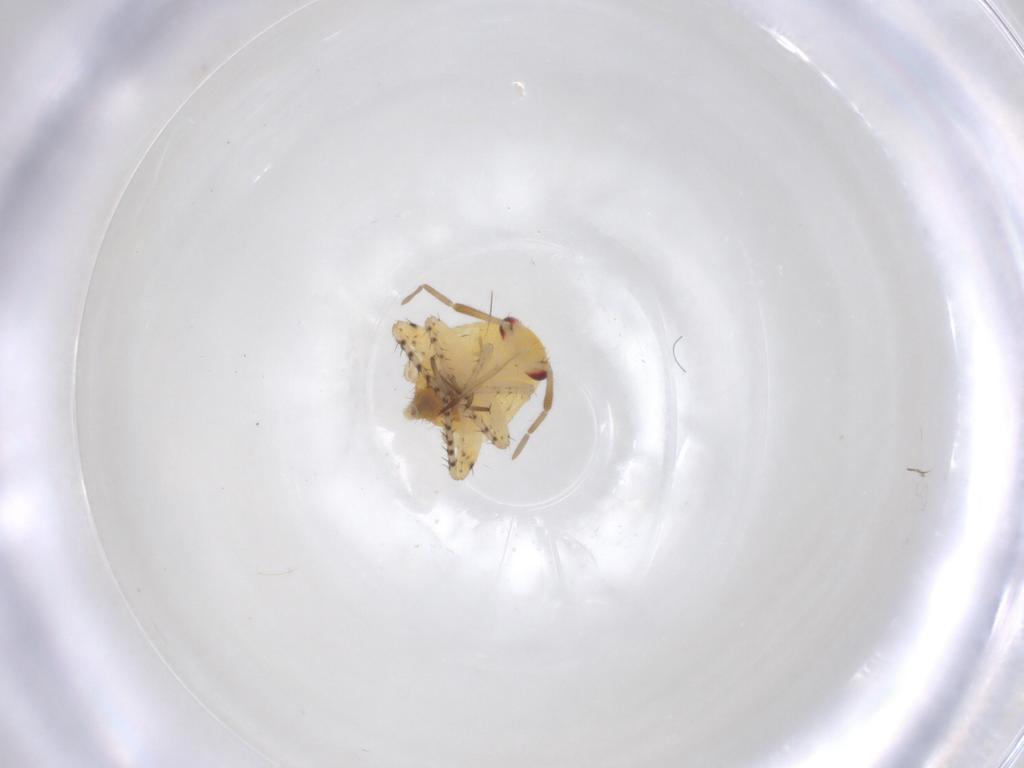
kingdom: Animalia
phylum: Arthropoda
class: Insecta
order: Hemiptera
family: Miridae
